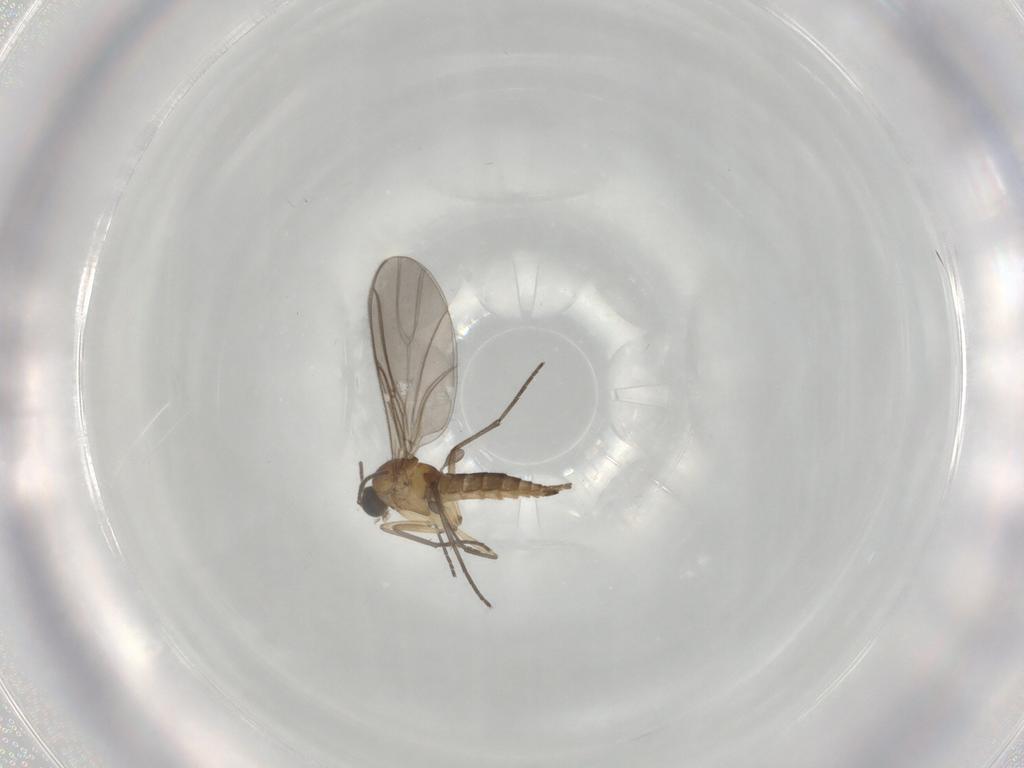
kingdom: Animalia
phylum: Arthropoda
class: Insecta
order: Diptera
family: Sciaridae
